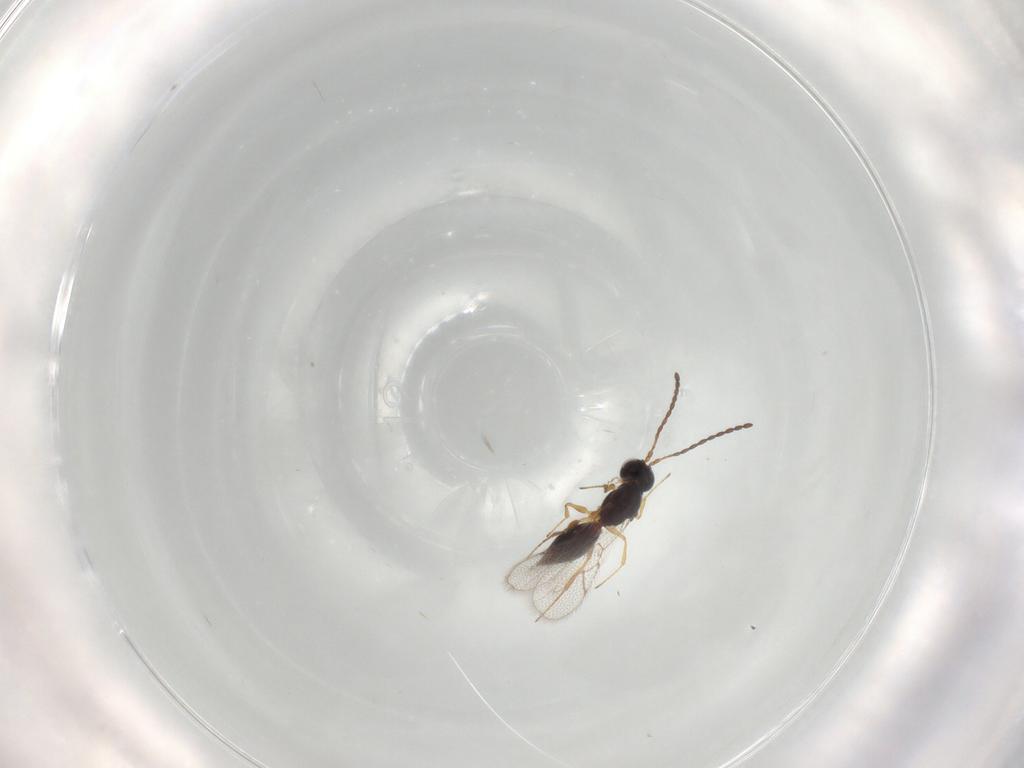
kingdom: Animalia
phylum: Arthropoda
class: Insecta
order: Hymenoptera
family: Figitidae
